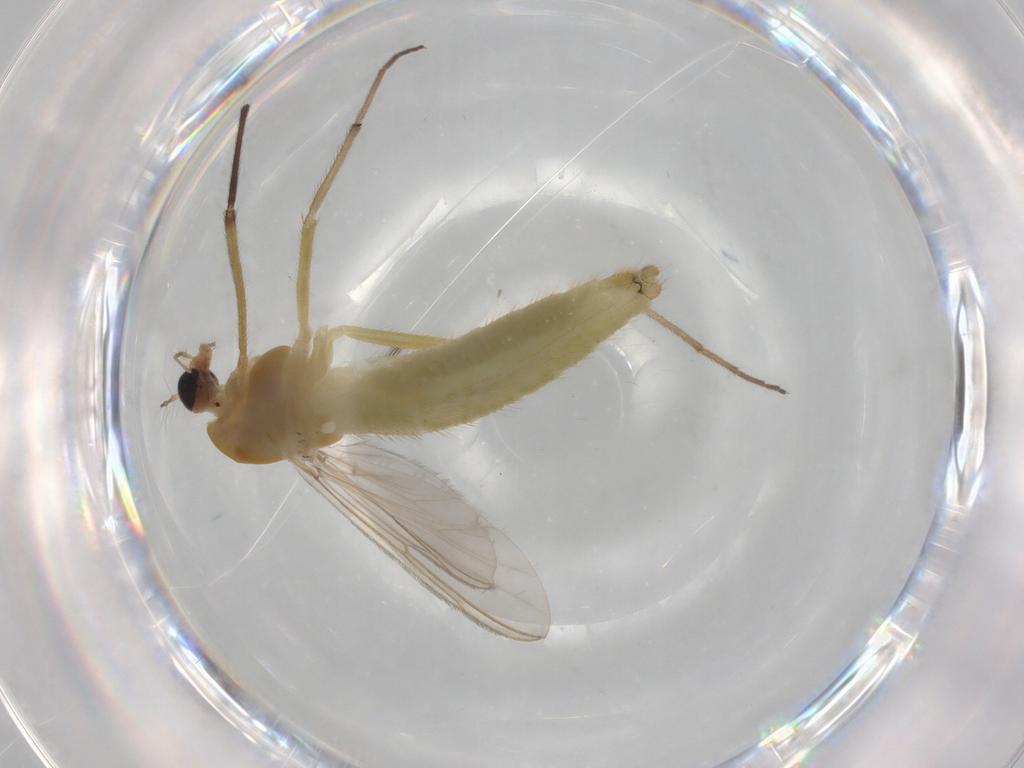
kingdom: Animalia
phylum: Arthropoda
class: Insecta
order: Diptera
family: Chironomidae
